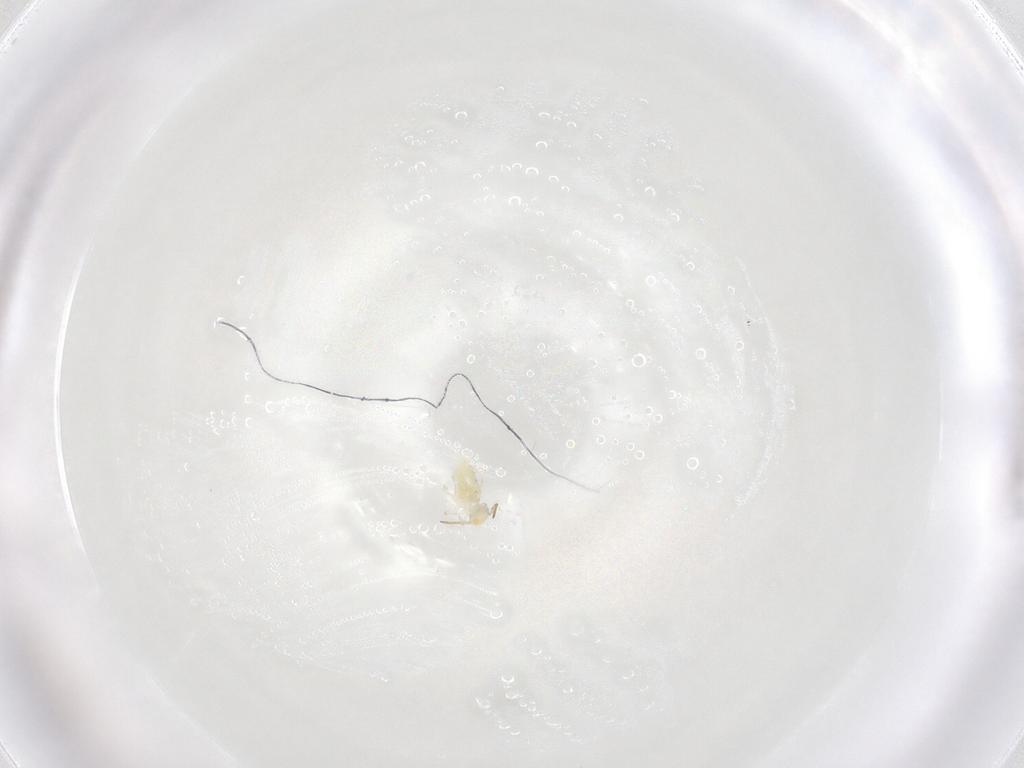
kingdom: Animalia
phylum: Arthropoda
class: Collembola
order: Symphypleona
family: Bourletiellidae
